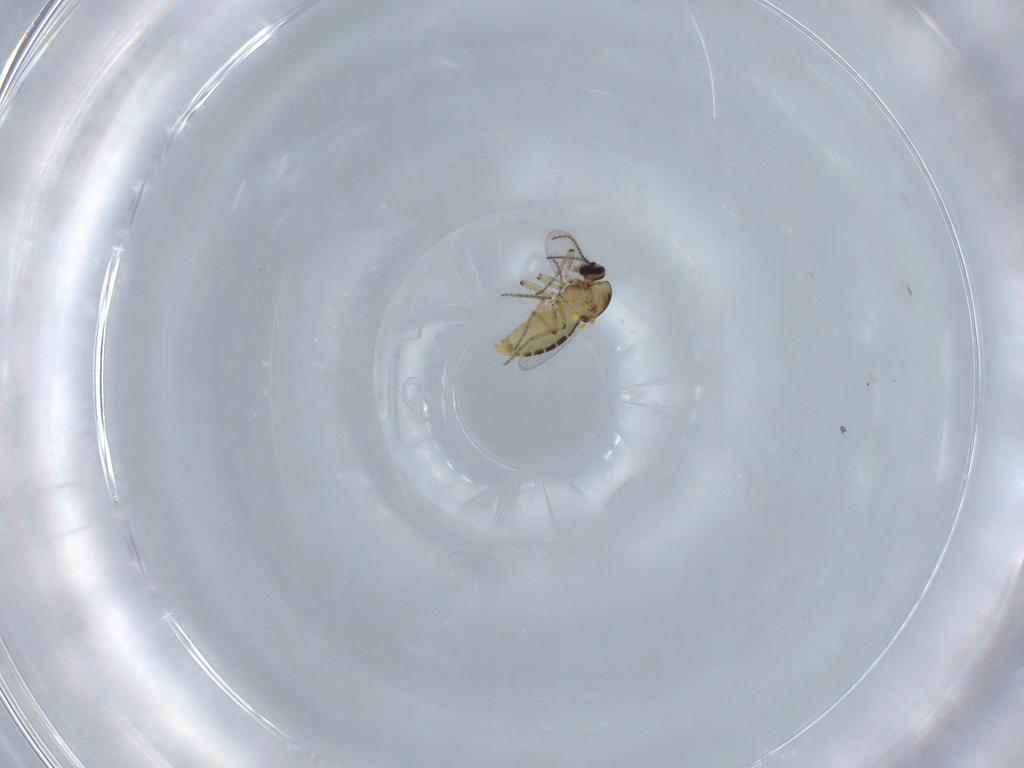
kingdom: Animalia
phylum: Arthropoda
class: Insecta
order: Diptera
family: Ceratopogonidae
